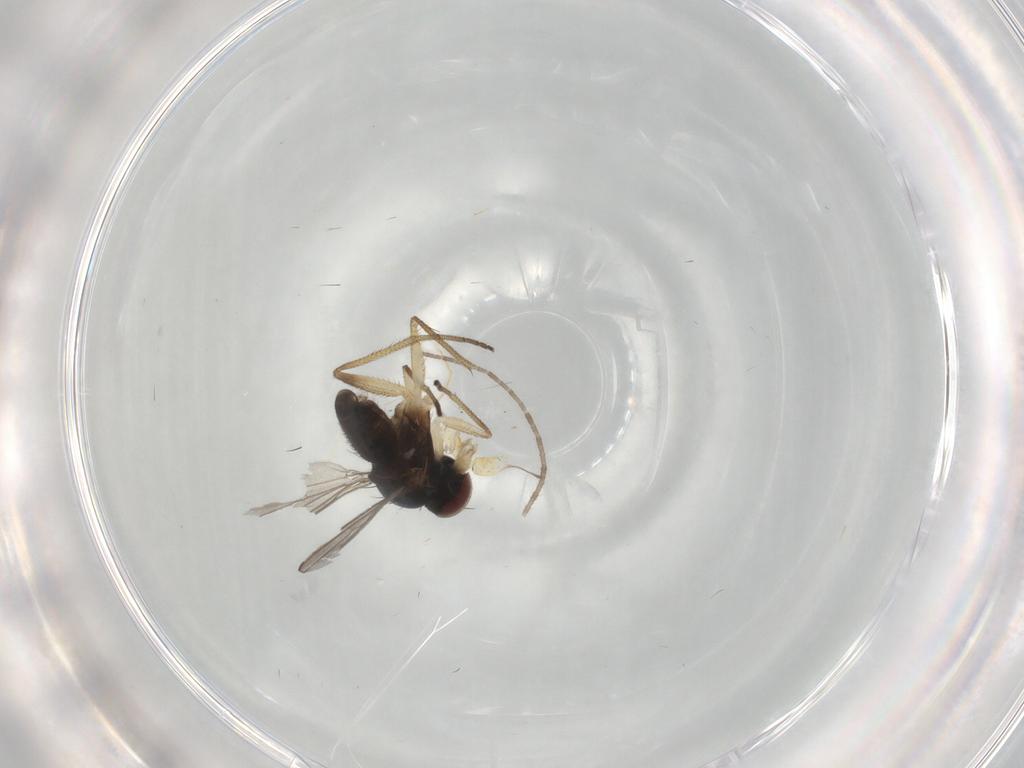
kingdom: Animalia
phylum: Arthropoda
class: Insecta
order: Diptera
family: Dolichopodidae
